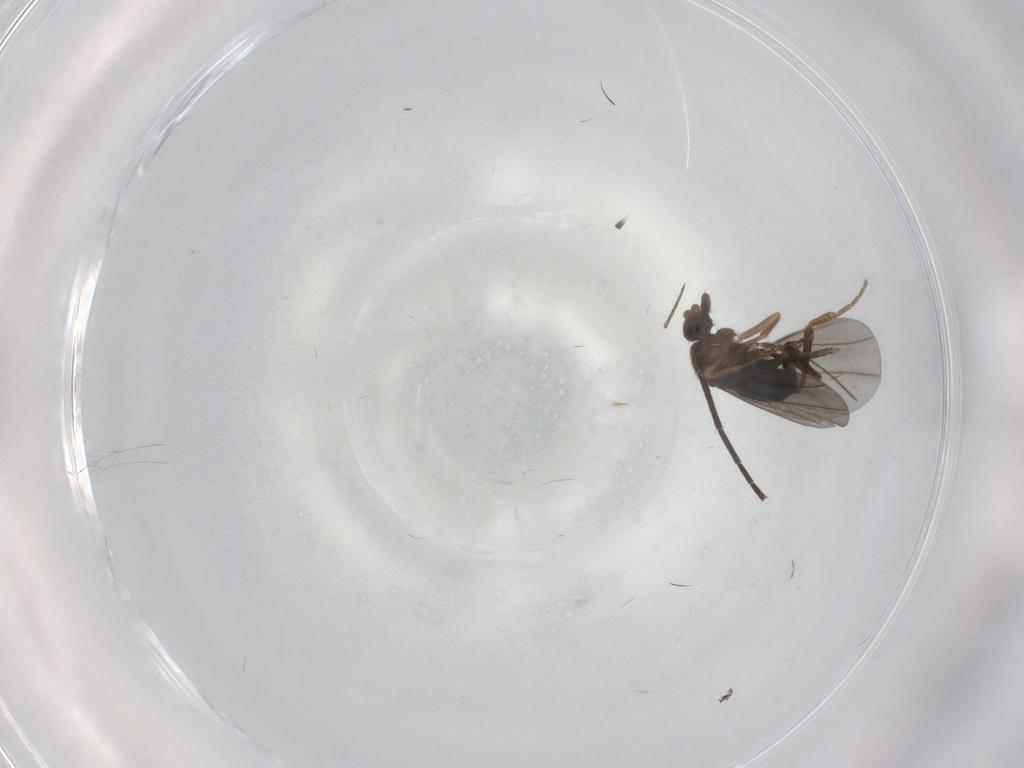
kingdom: Animalia
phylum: Arthropoda
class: Insecta
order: Diptera
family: Sciaridae
